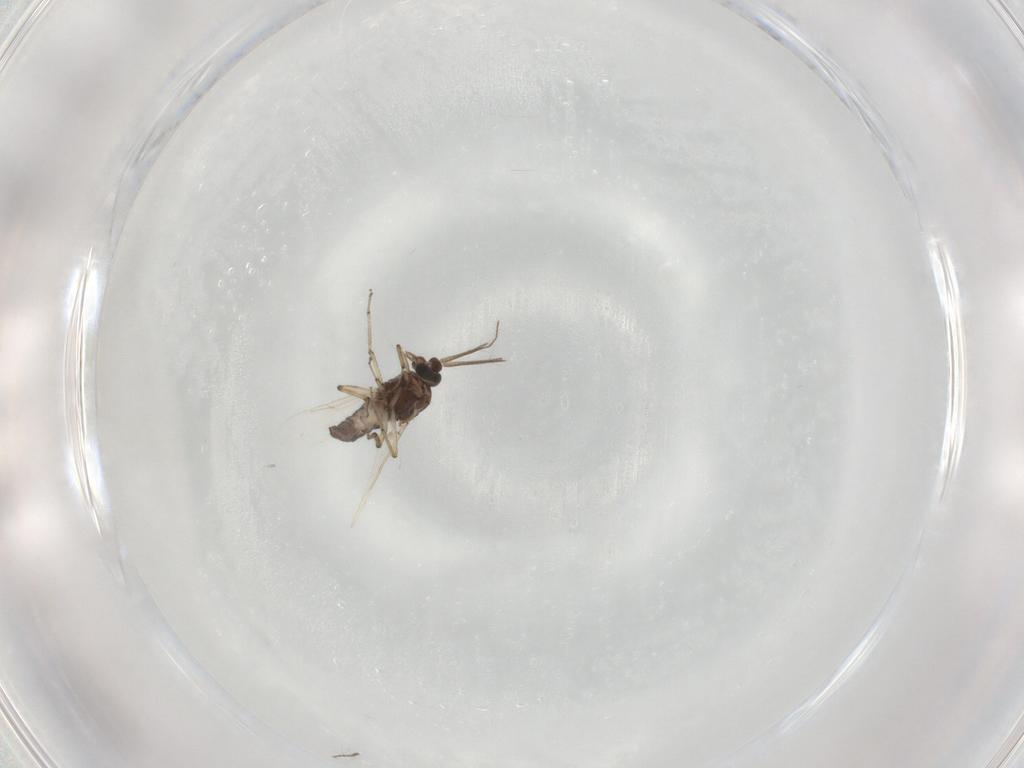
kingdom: Animalia
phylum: Arthropoda
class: Insecta
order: Diptera
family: Ceratopogonidae
